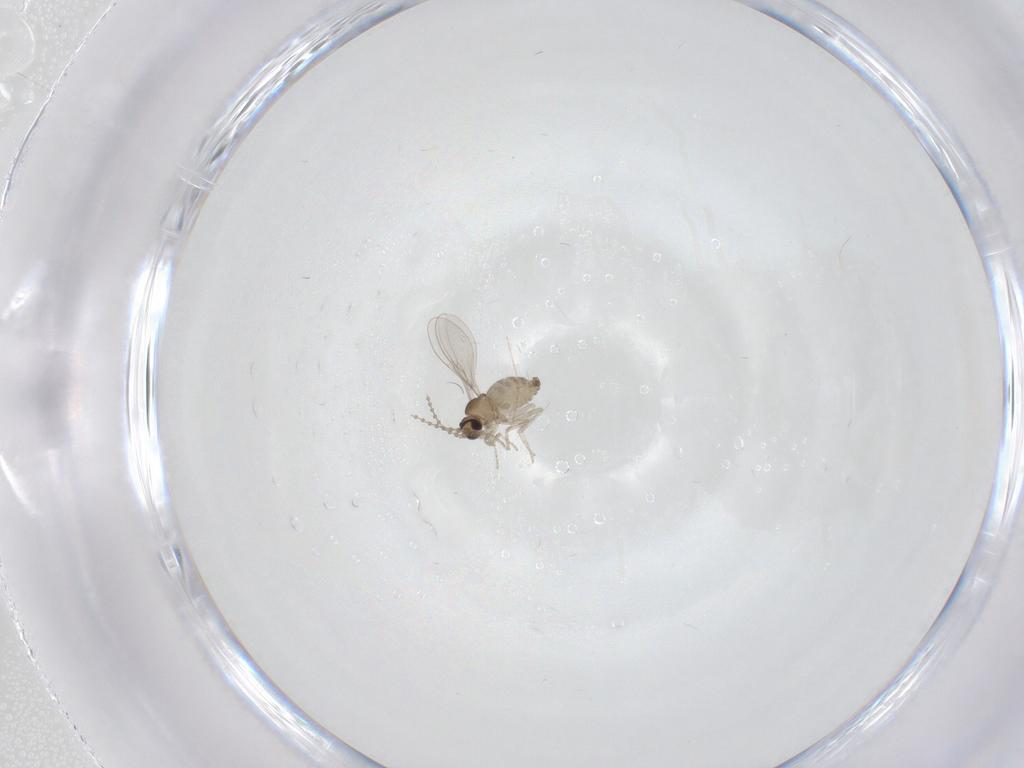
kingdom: Animalia
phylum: Arthropoda
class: Insecta
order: Diptera
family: Cecidomyiidae
